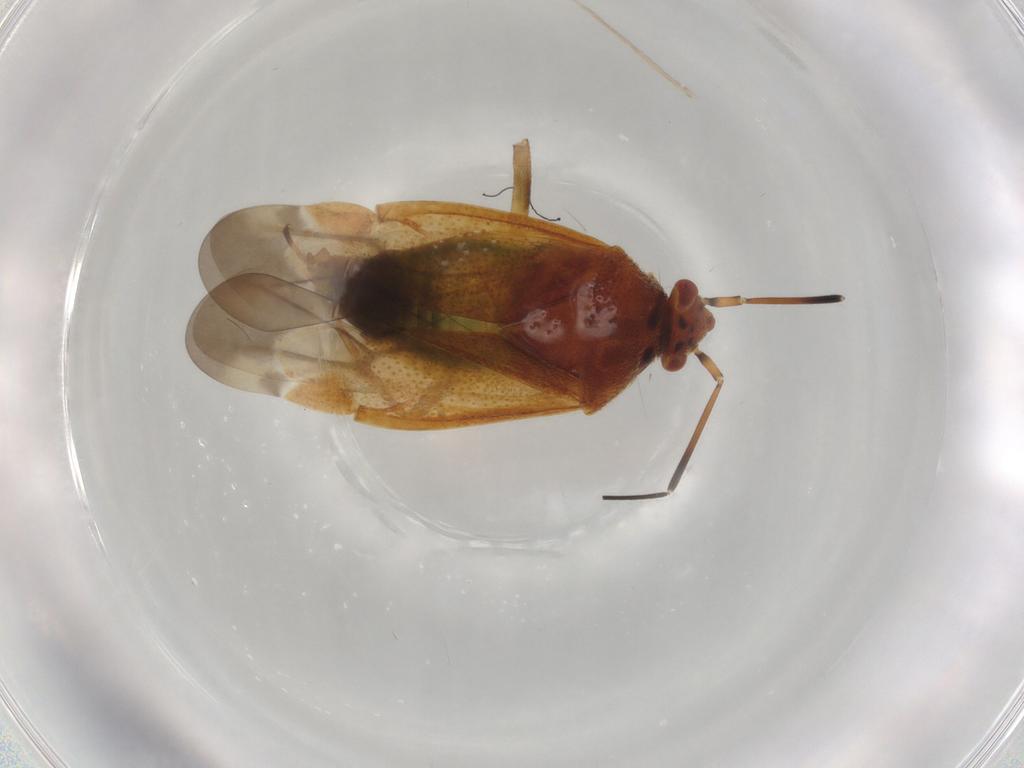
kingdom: Animalia
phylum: Arthropoda
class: Insecta
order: Hemiptera
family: Miridae
